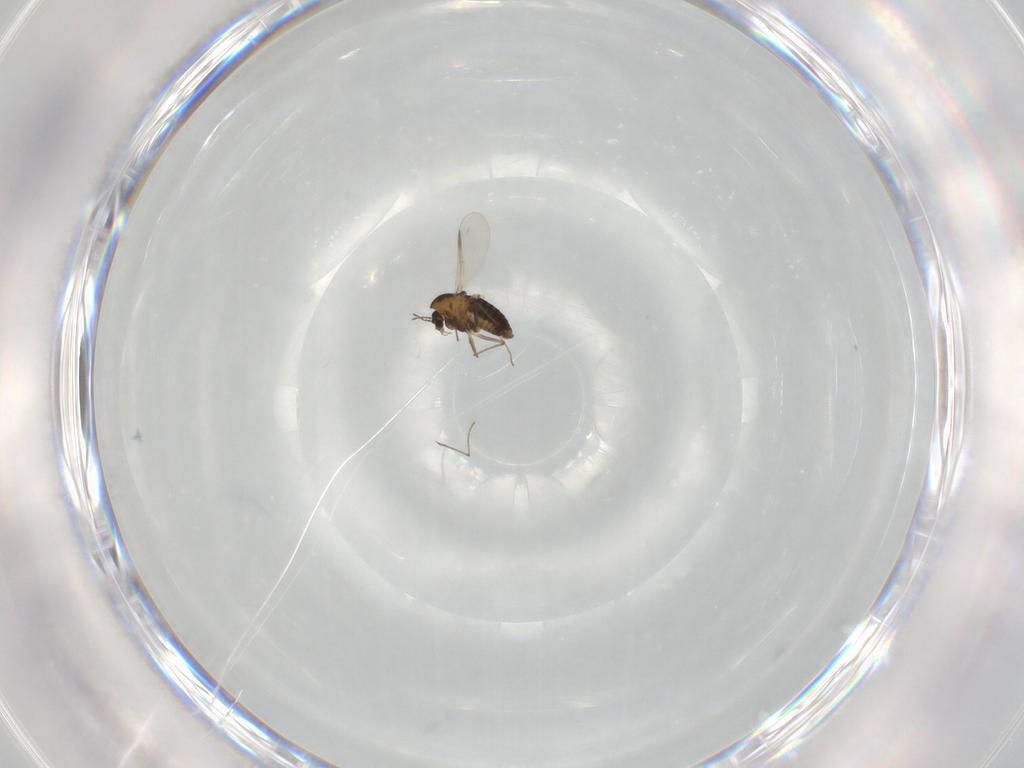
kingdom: Animalia
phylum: Arthropoda
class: Insecta
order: Diptera
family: Chironomidae
